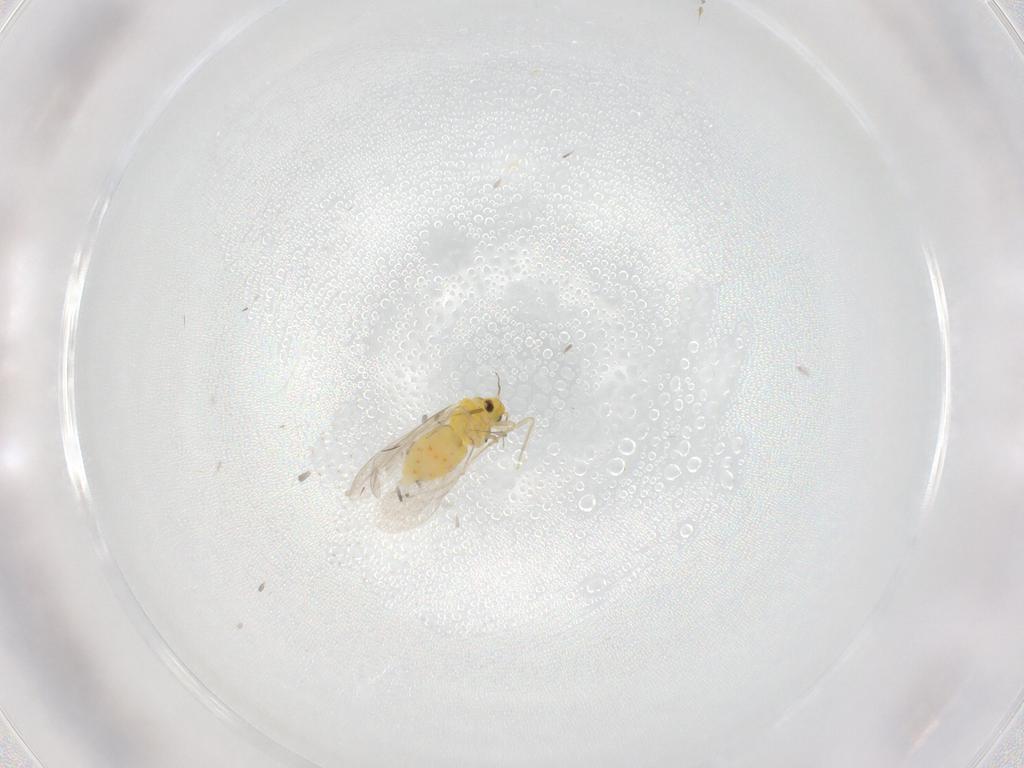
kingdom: Animalia
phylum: Arthropoda
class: Insecta
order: Hemiptera
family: Aleyrodidae
